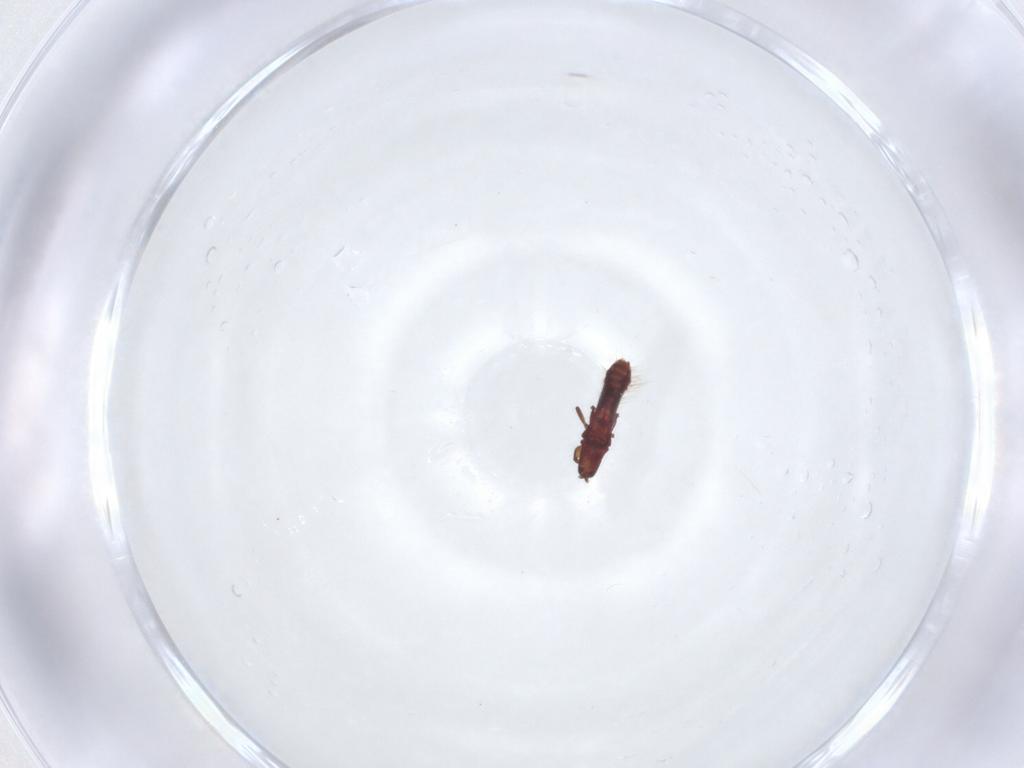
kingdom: Animalia
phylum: Arthropoda
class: Insecta
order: Thysanoptera
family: Phlaeothripidae
